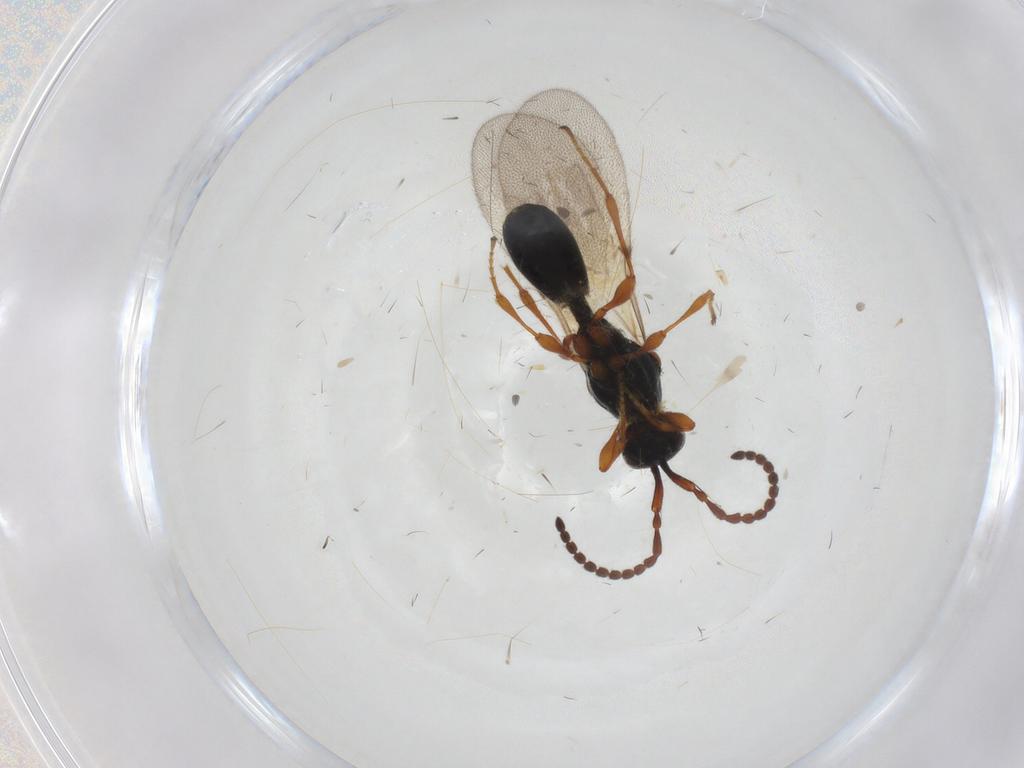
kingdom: Animalia
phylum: Arthropoda
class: Insecta
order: Hymenoptera
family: Diapriidae
